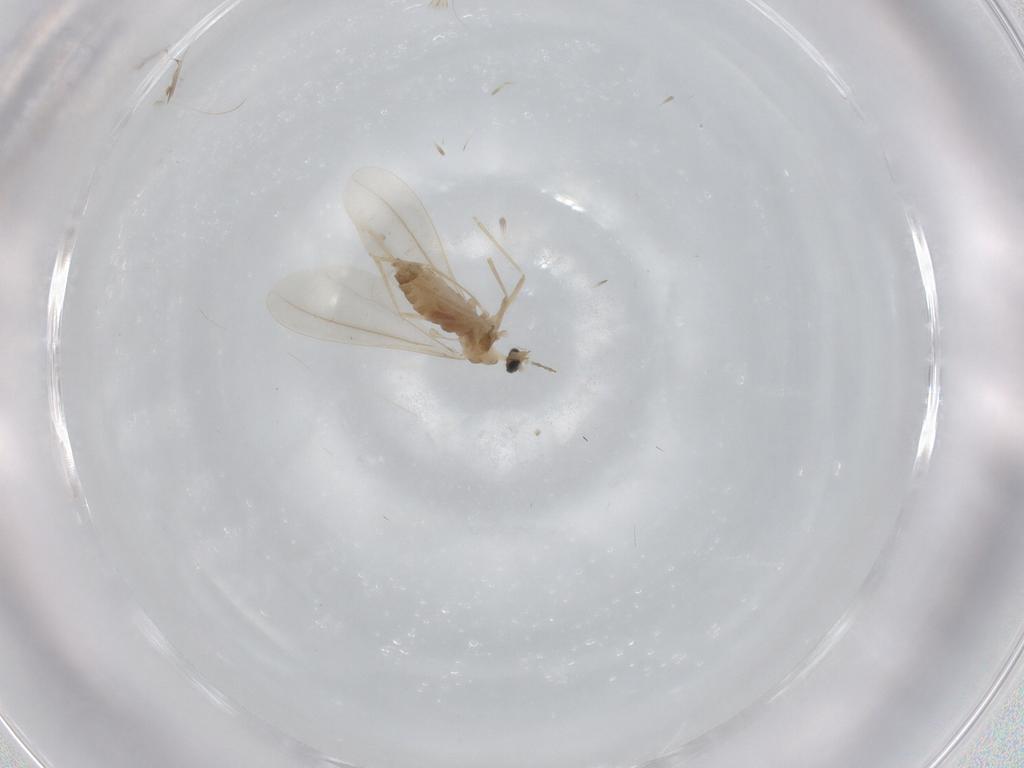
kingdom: Animalia
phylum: Arthropoda
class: Insecta
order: Diptera
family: Cecidomyiidae
